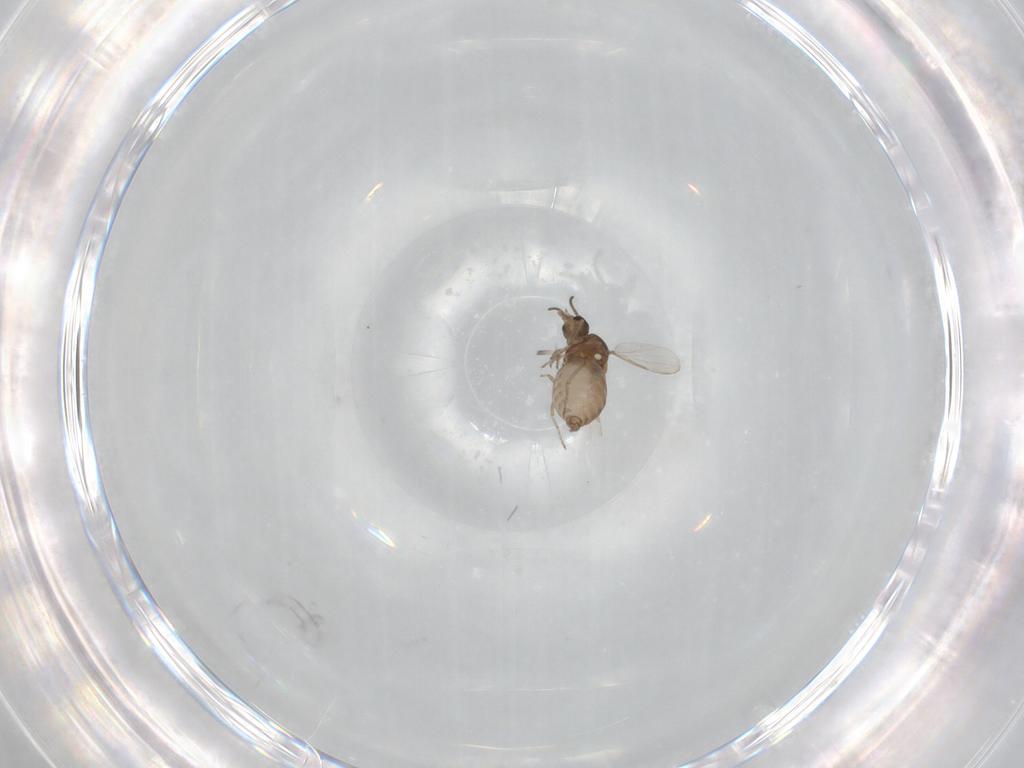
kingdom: Animalia
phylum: Arthropoda
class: Insecta
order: Diptera
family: Ceratopogonidae
